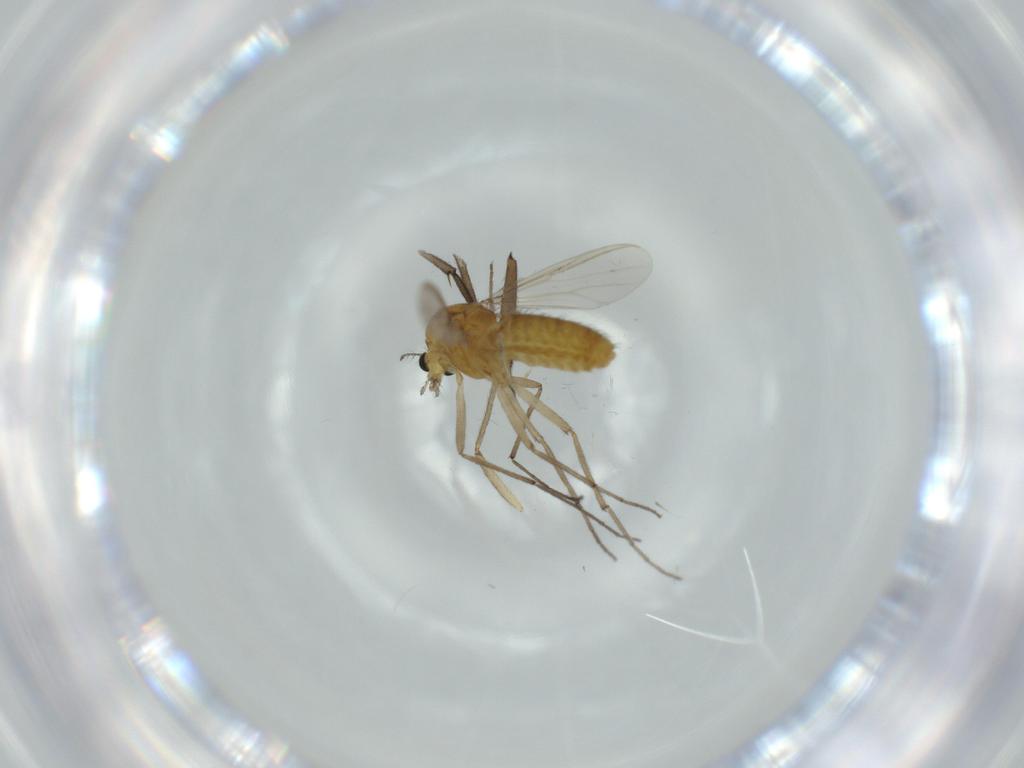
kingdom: Animalia
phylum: Arthropoda
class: Insecta
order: Diptera
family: Chironomidae
